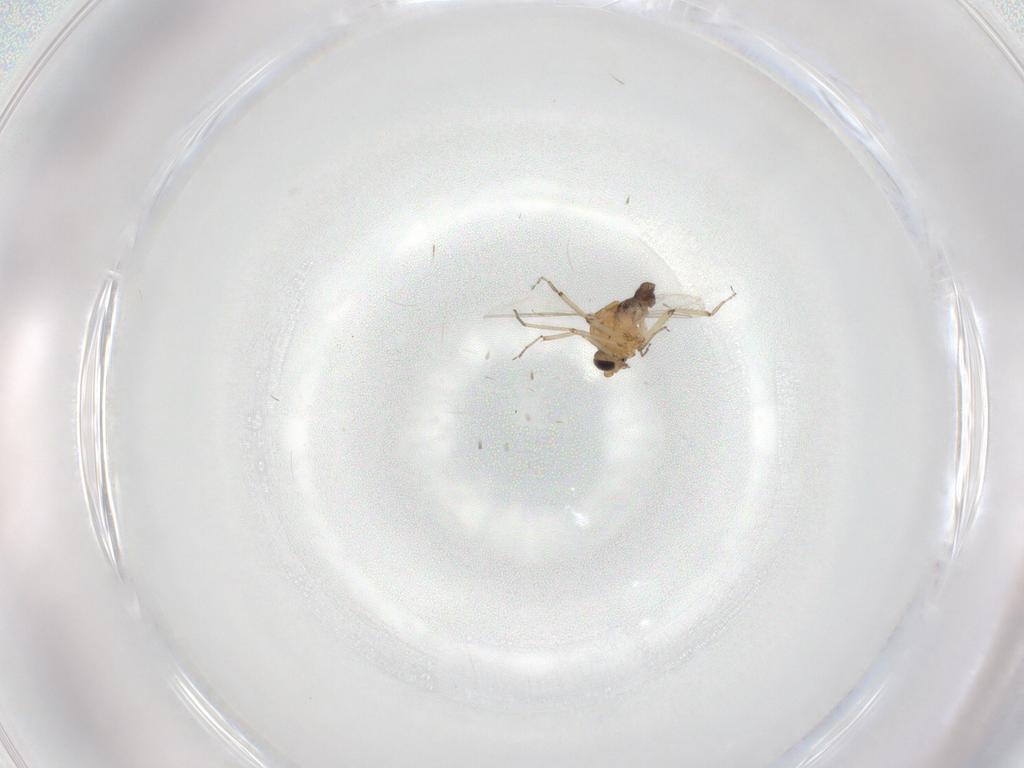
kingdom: Animalia
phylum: Arthropoda
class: Insecta
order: Diptera
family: Ceratopogonidae
